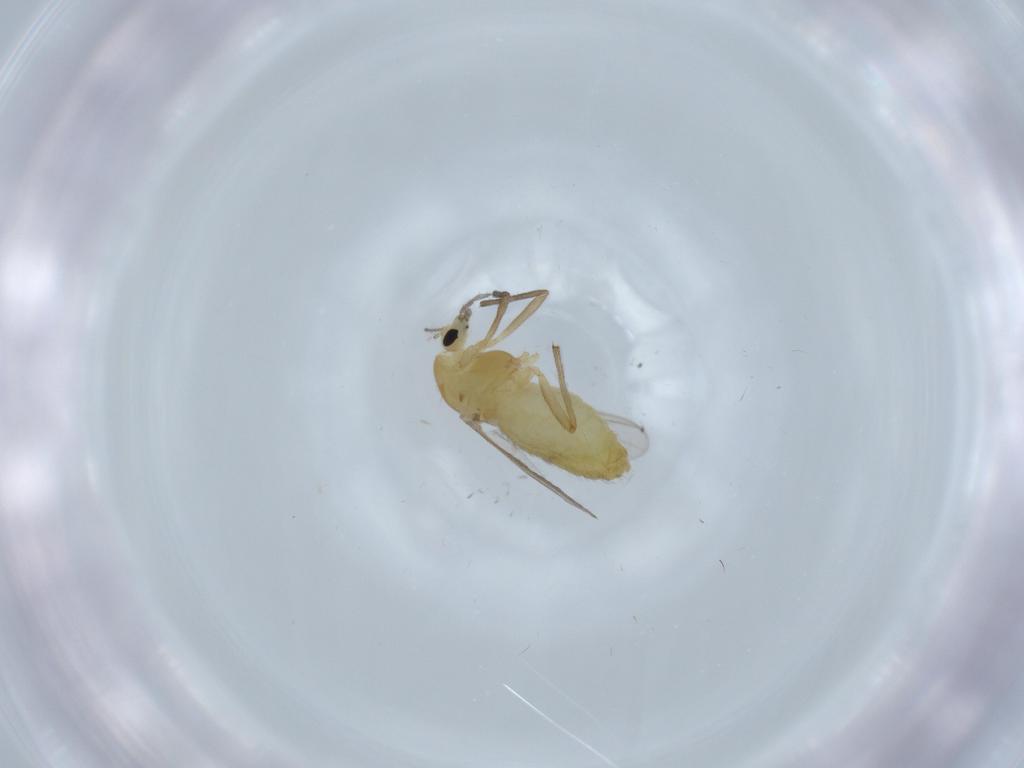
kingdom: Animalia
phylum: Arthropoda
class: Insecta
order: Diptera
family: Chironomidae
